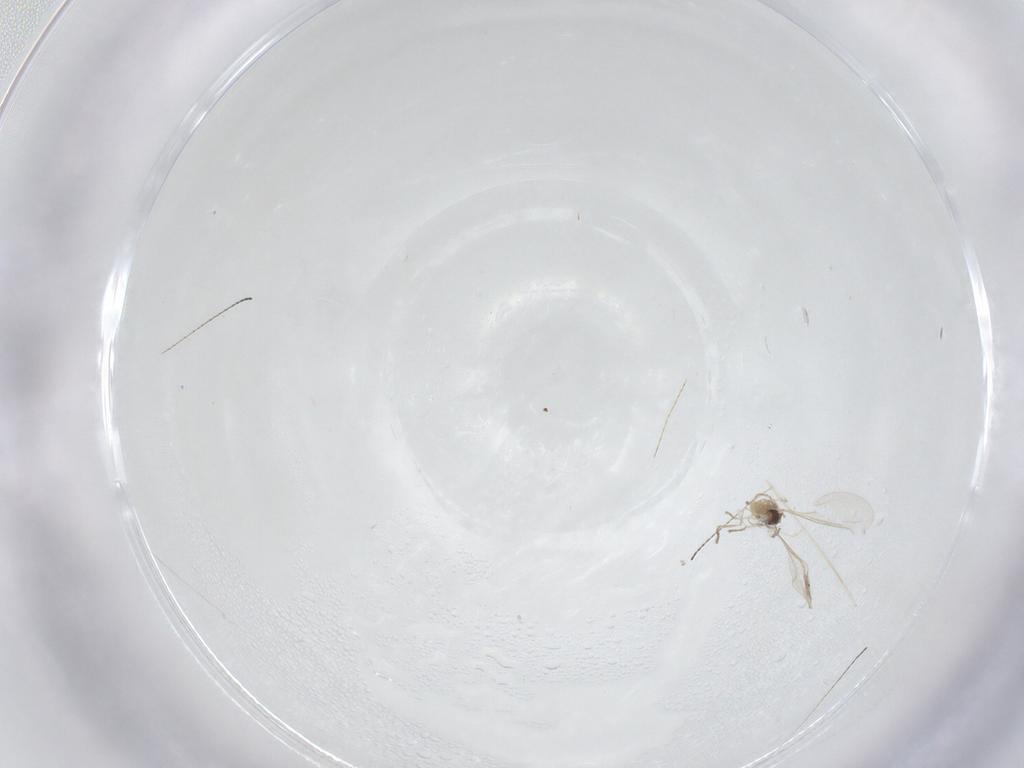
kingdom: Animalia
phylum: Arthropoda
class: Insecta
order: Diptera
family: Cecidomyiidae
